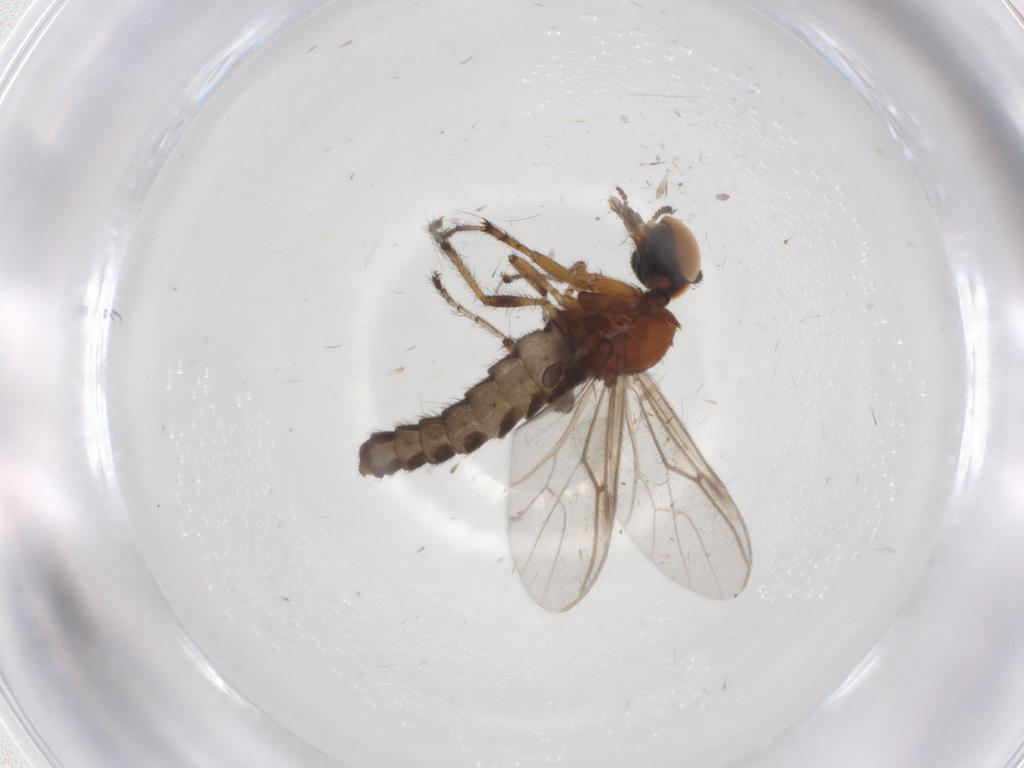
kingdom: Animalia
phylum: Arthropoda
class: Insecta
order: Diptera
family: Bibionidae
